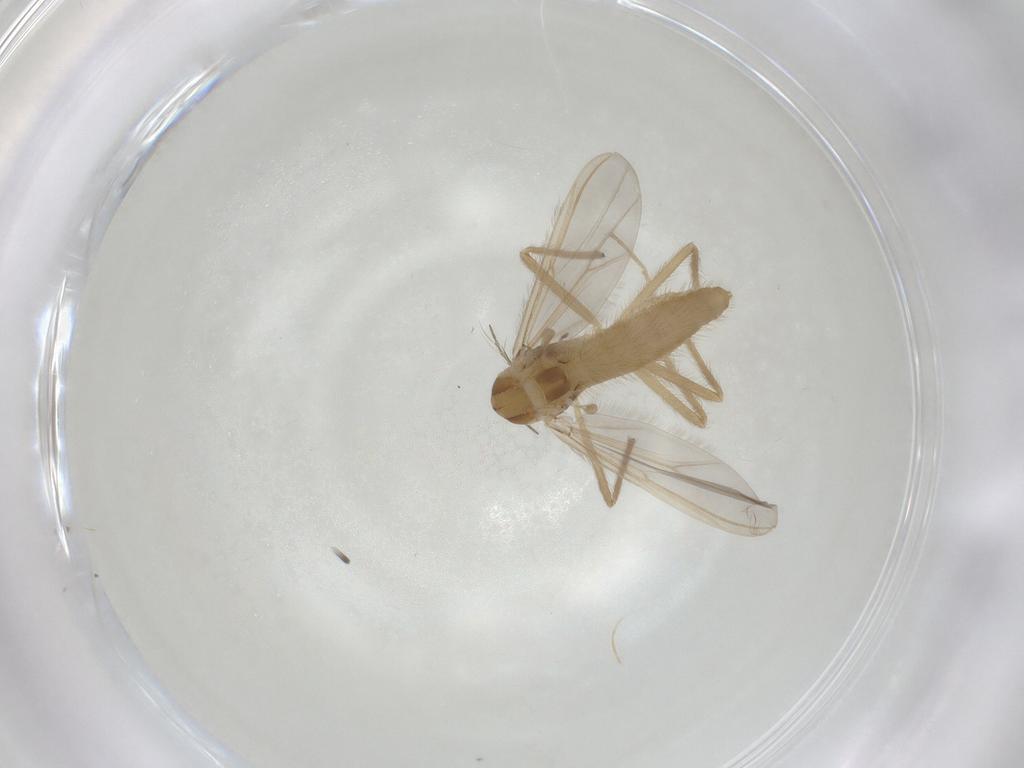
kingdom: Animalia
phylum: Arthropoda
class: Insecta
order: Diptera
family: Chironomidae
